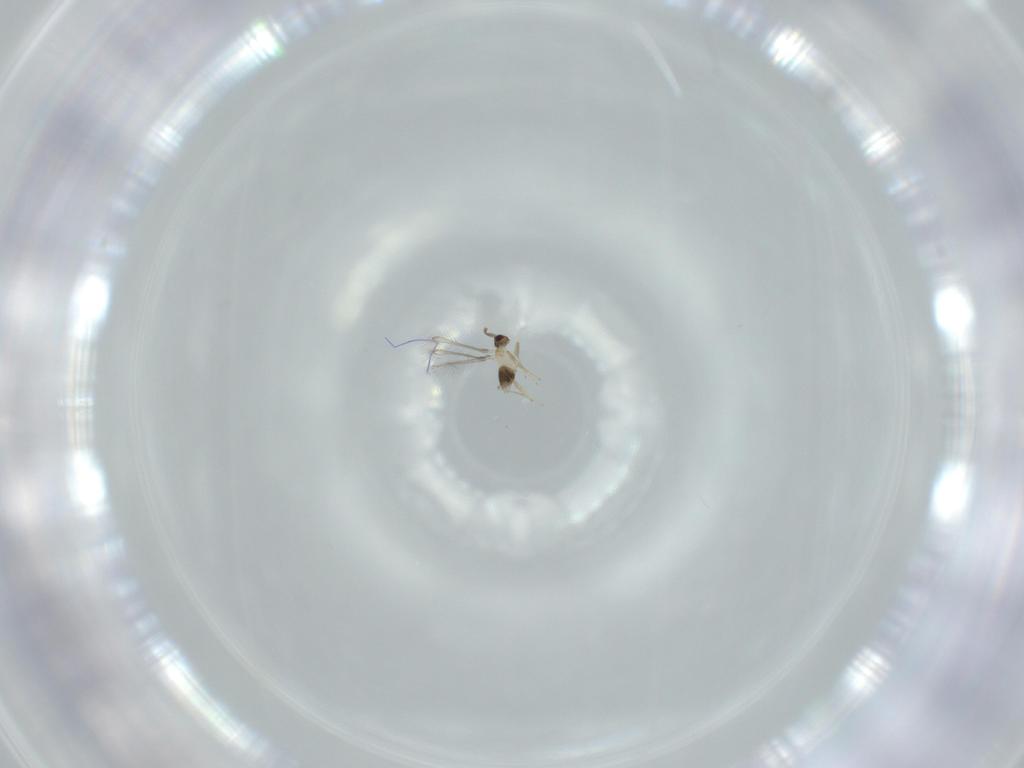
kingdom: Animalia
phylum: Arthropoda
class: Insecta
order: Hymenoptera
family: Mymaridae
